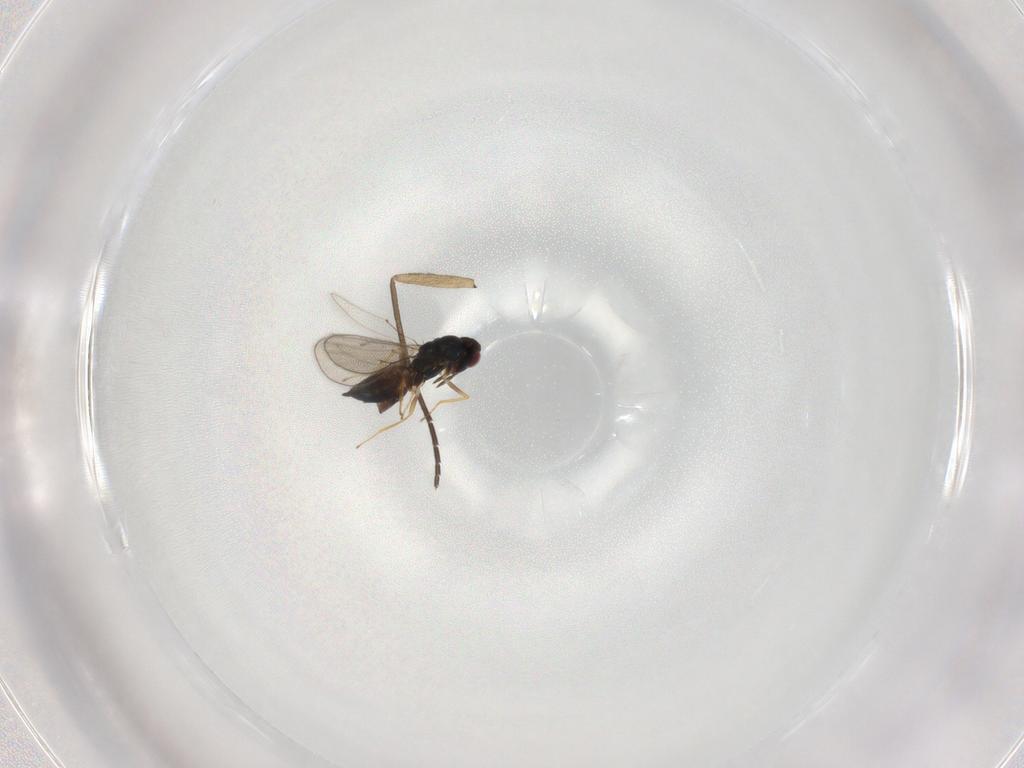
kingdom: Animalia
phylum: Arthropoda
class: Insecta
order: Hymenoptera
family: Eulophidae
